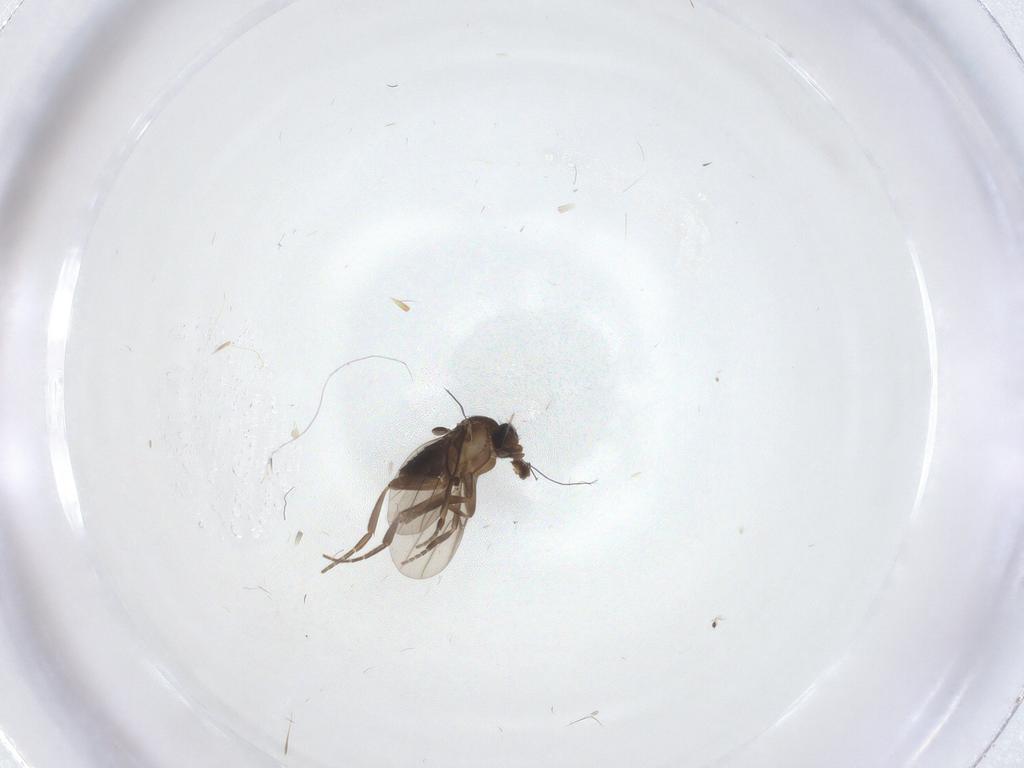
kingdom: Animalia
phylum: Arthropoda
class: Insecta
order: Diptera
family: Phoridae
